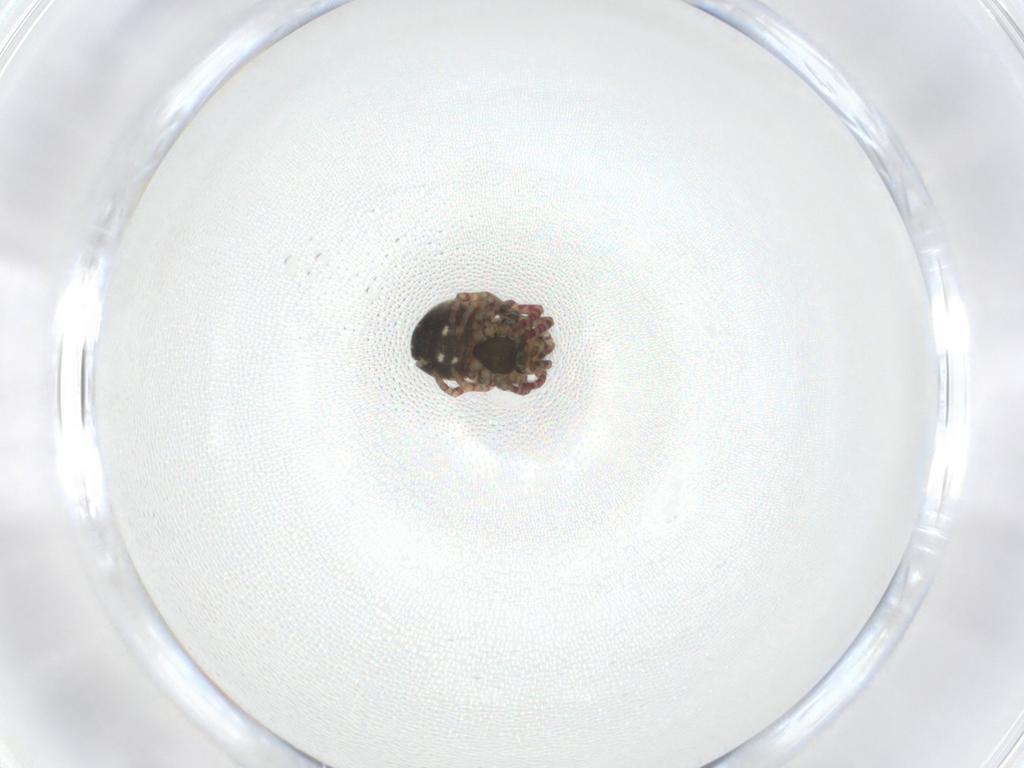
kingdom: Animalia
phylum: Arthropoda
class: Arachnida
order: Araneae
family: Araneidae
